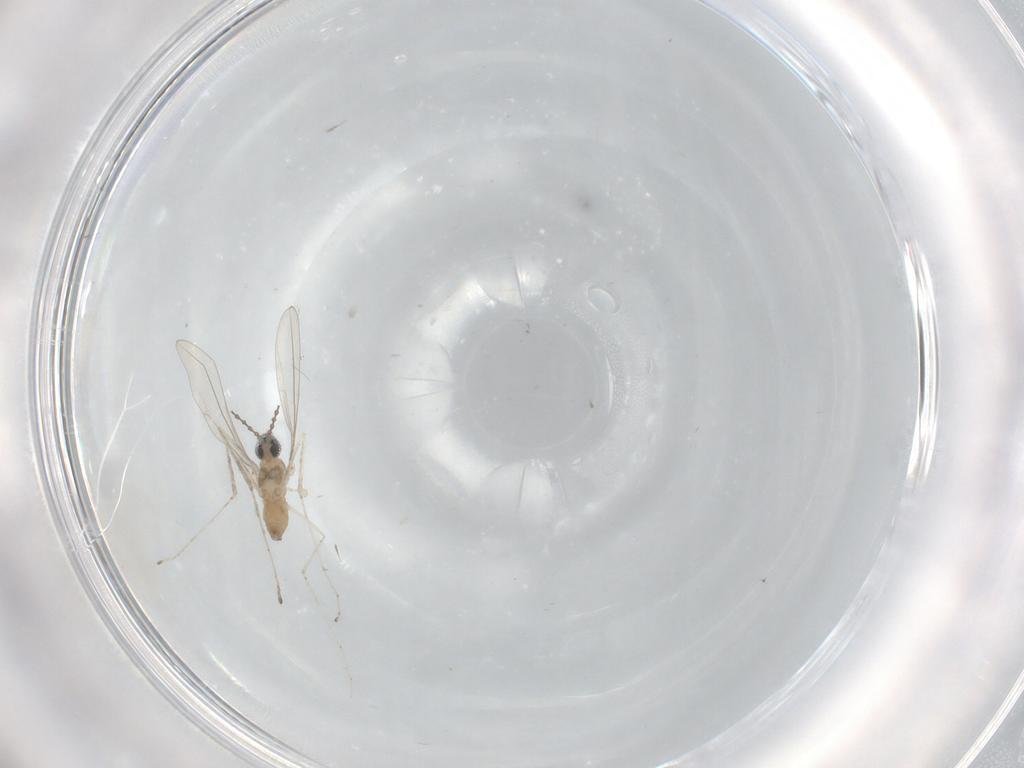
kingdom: Animalia
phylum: Arthropoda
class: Insecta
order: Diptera
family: Cecidomyiidae
